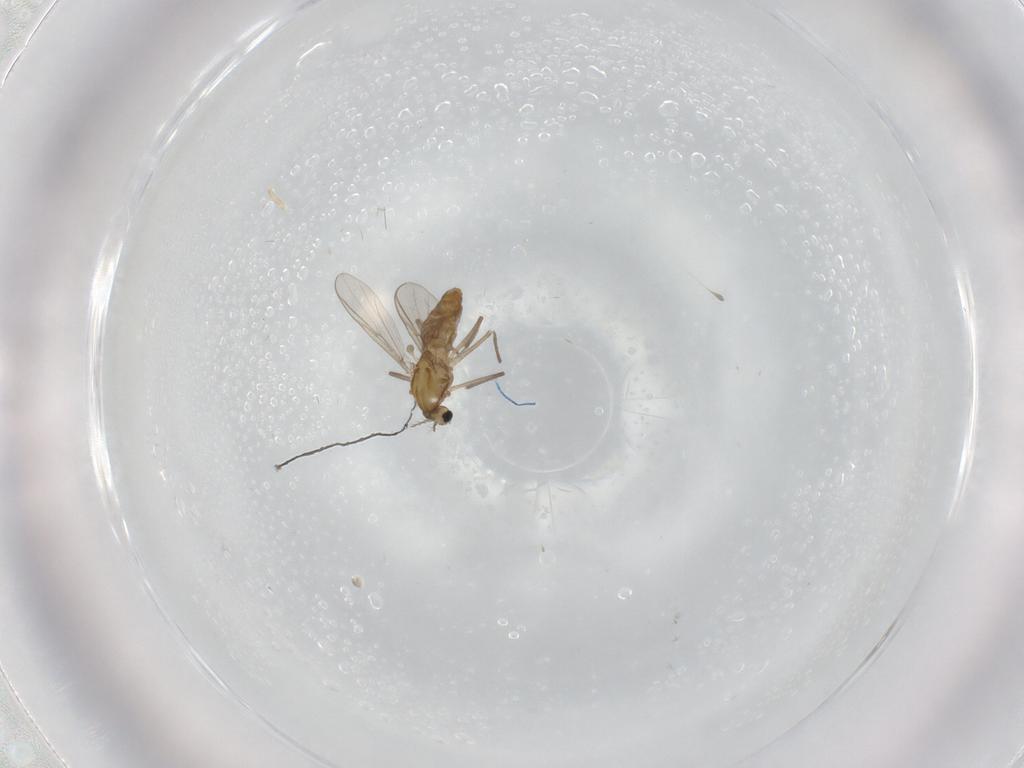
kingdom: Animalia
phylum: Arthropoda
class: Insecta
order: Diptera
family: Chironomidae
